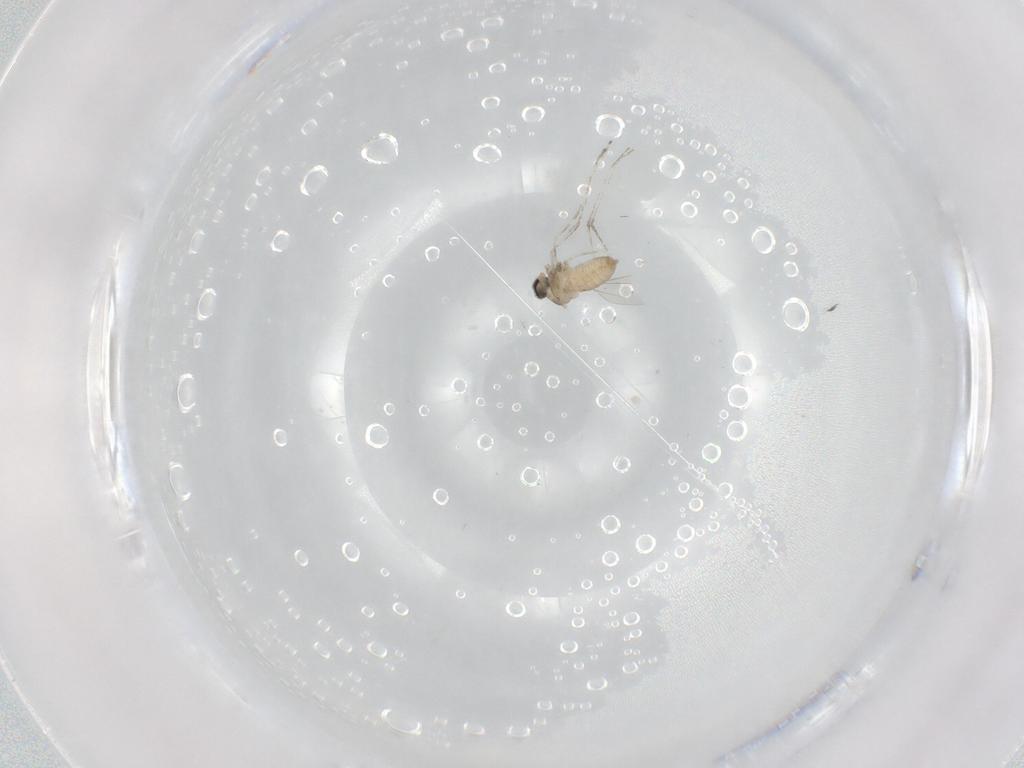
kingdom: Animalia
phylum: Arthropoda
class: Insecta
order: Diptera
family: Cecidomyiidae
